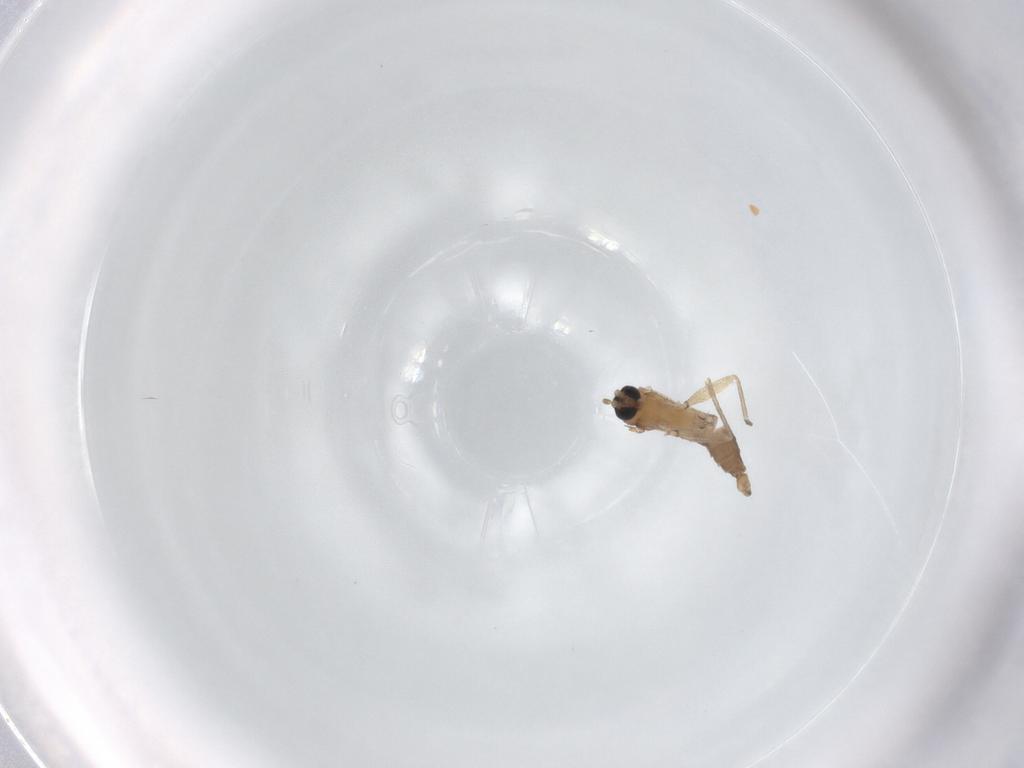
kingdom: Animalia
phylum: Arthropoda
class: Insecta
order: Diptera
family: Sciaridae
